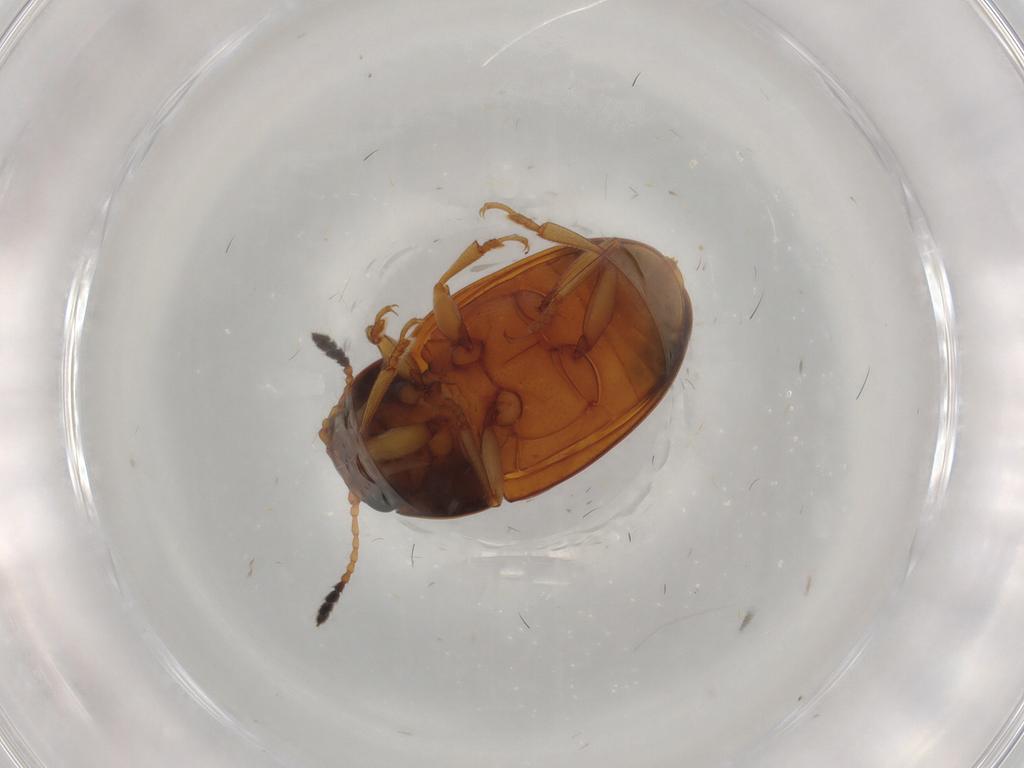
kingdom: Animalia
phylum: Arthropoda
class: Insecta
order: Coleoptera
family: Erotylidae
